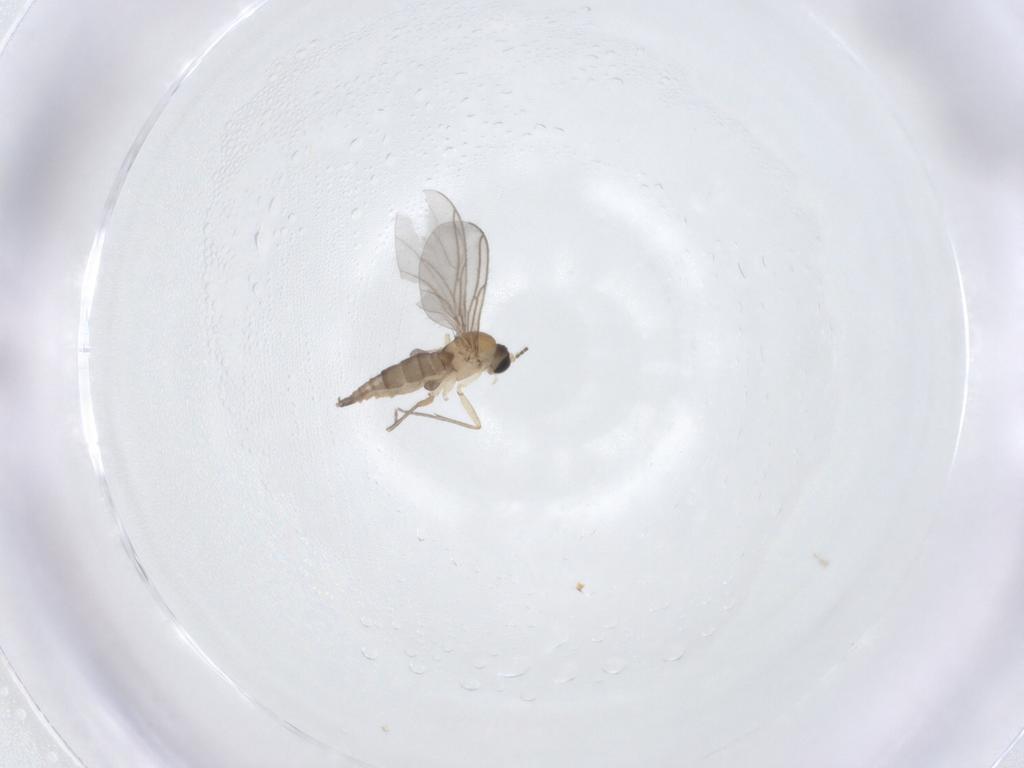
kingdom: Animalia
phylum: Arthropoda
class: Insecta
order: Diptera
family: Sciaridae
